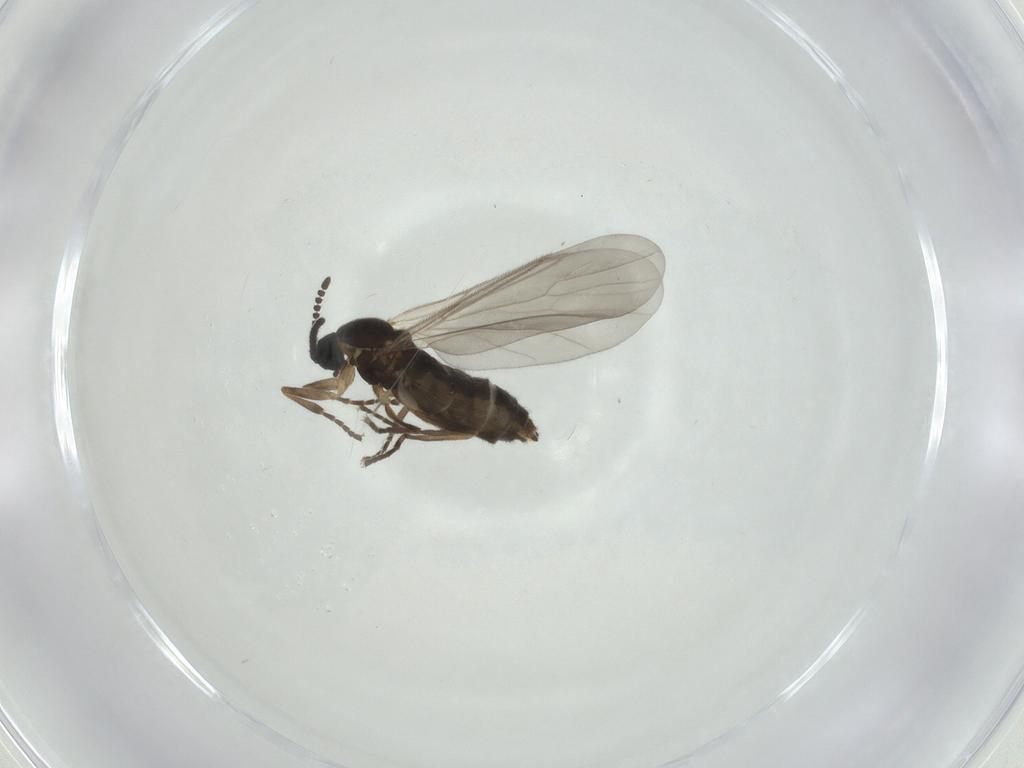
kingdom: Animalia
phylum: Arthropoda
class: Insecta
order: Diptera
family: Scatopsidae
